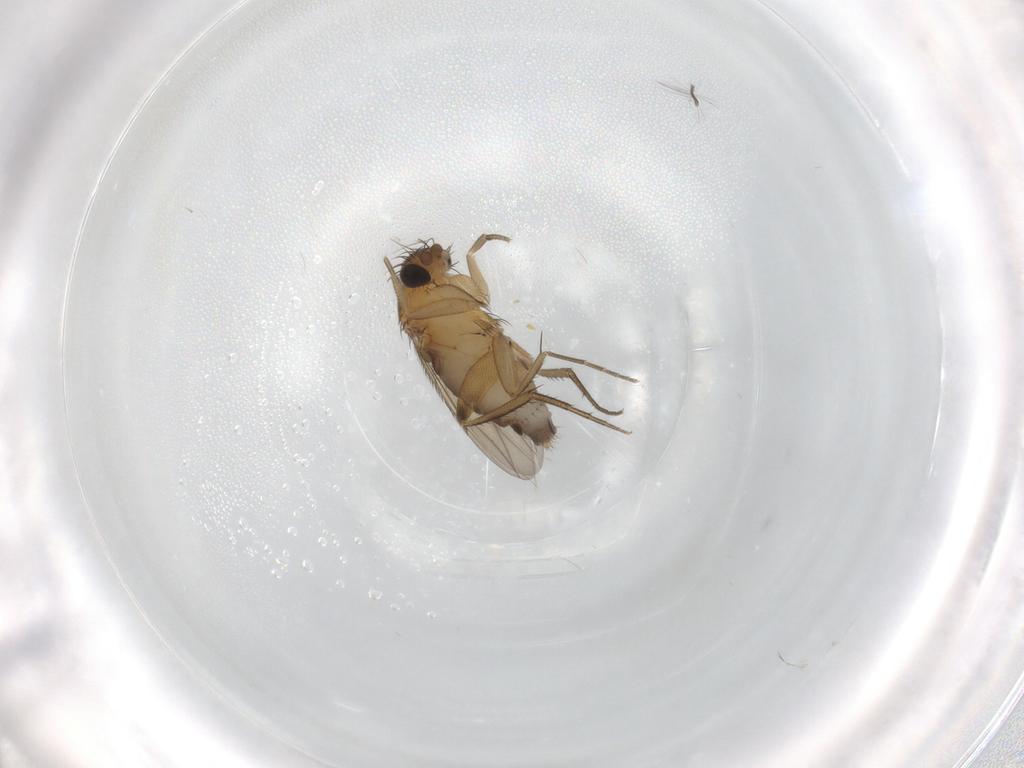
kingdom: Animalia
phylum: Arthropoda
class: Insecta
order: Diptera
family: Phoridae
